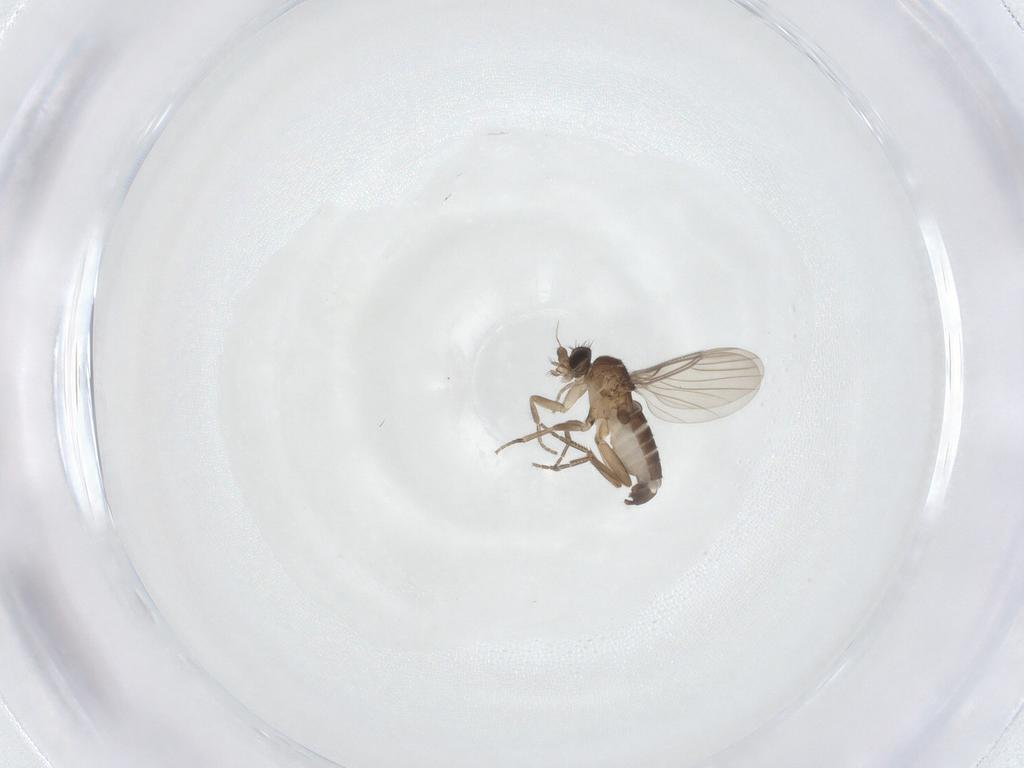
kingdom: Animalia
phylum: Arthropoda
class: Insecta
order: Diptera
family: Phoridae
